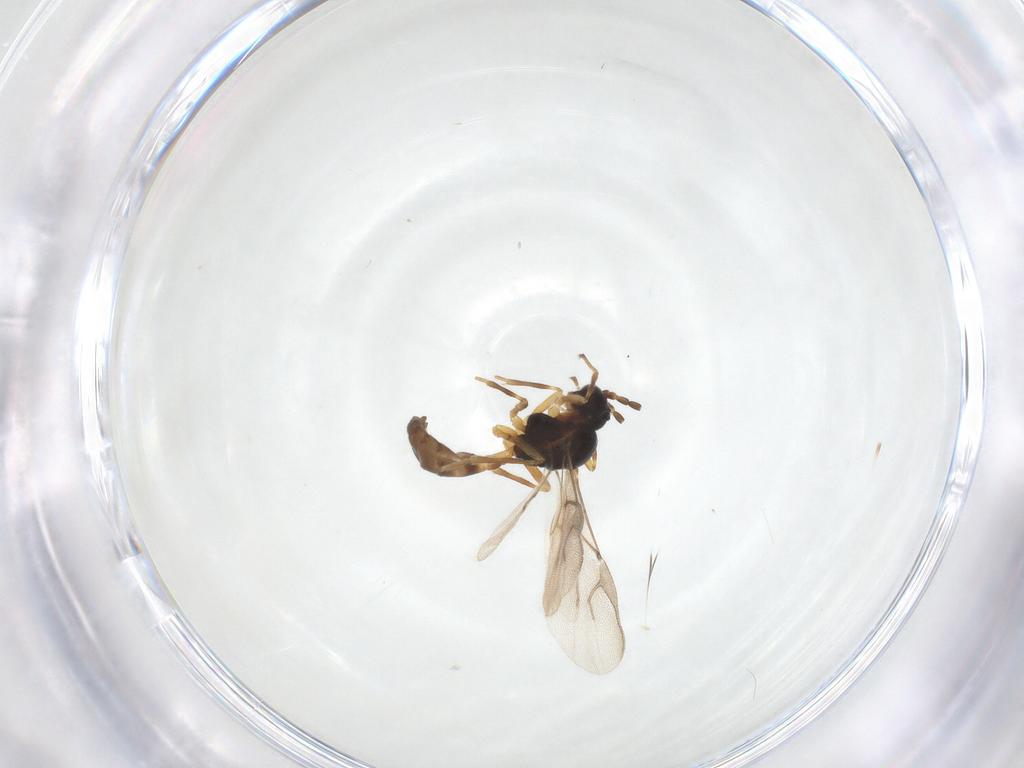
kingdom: Animalia
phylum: Arthropoda
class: Insecta
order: Hymenoptera
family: Braconidae
